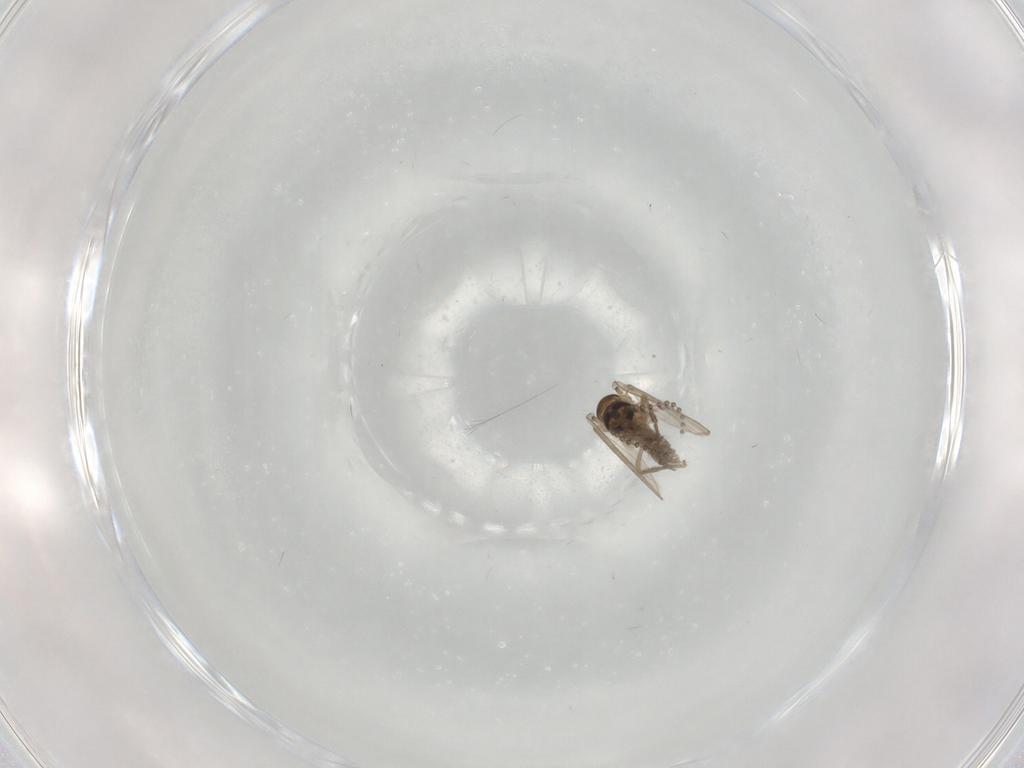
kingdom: Animalia
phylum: Arthropoda
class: Insecta
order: Diptera
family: Psychodidae
